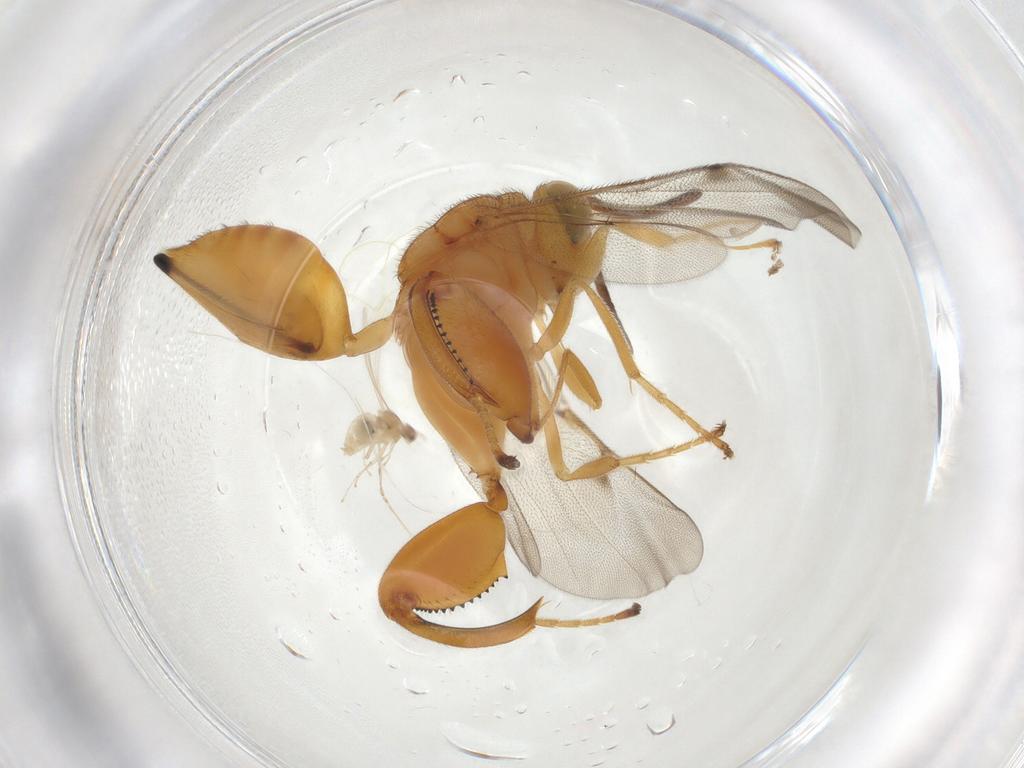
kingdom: Animalia
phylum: Arthropoda
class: Insecta
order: Hymenoptera
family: Chalcididae
